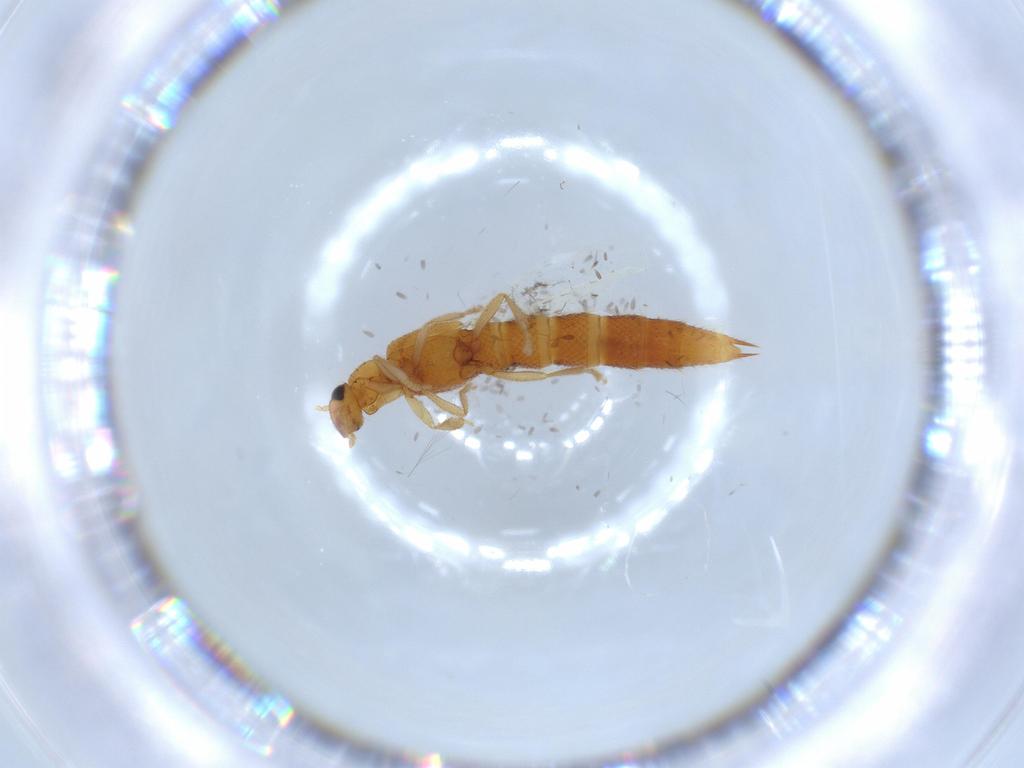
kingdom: Animalia
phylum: Arthropoda
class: Insecta
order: Coleoptera
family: Staphylinidae
